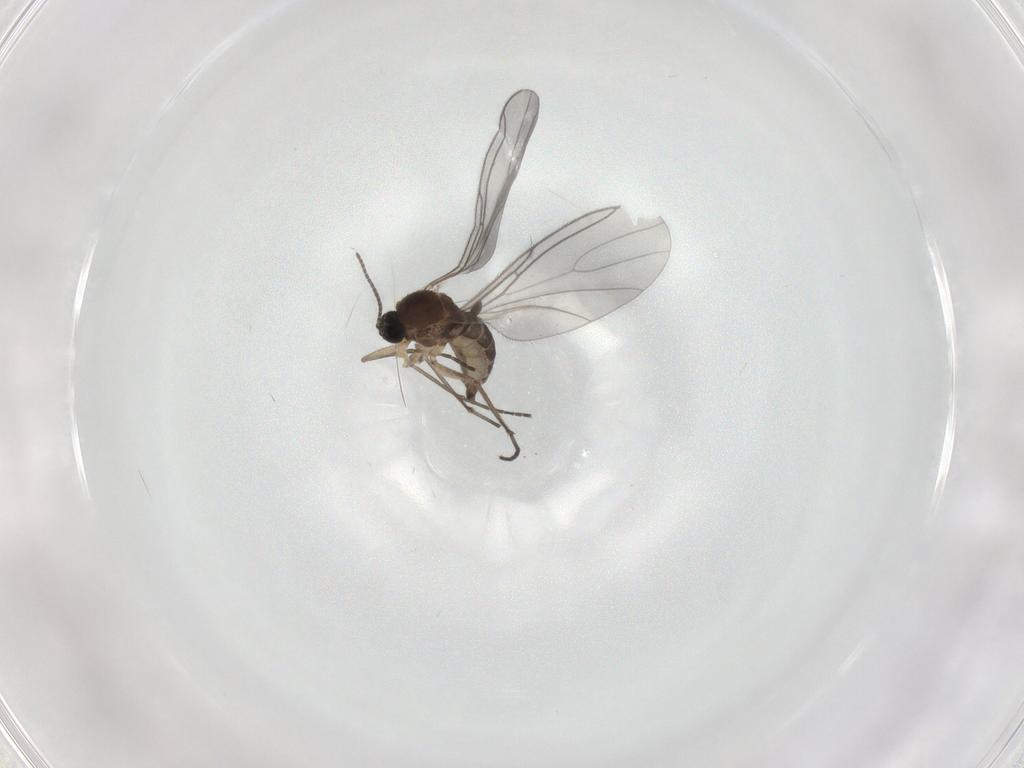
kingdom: Animalia
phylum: Arthropoda
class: Insecta
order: Diptera
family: Sciaridae
